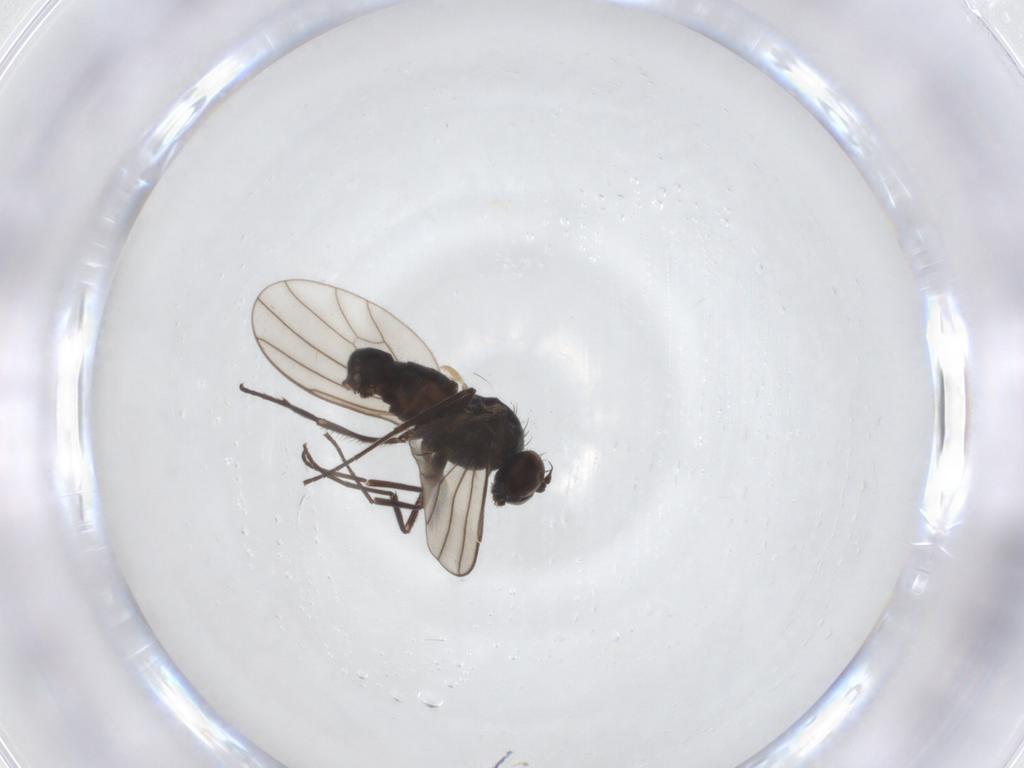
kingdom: Animalia
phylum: Arthropoda
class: Insecta
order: Diptera
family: Dolichopodidae
